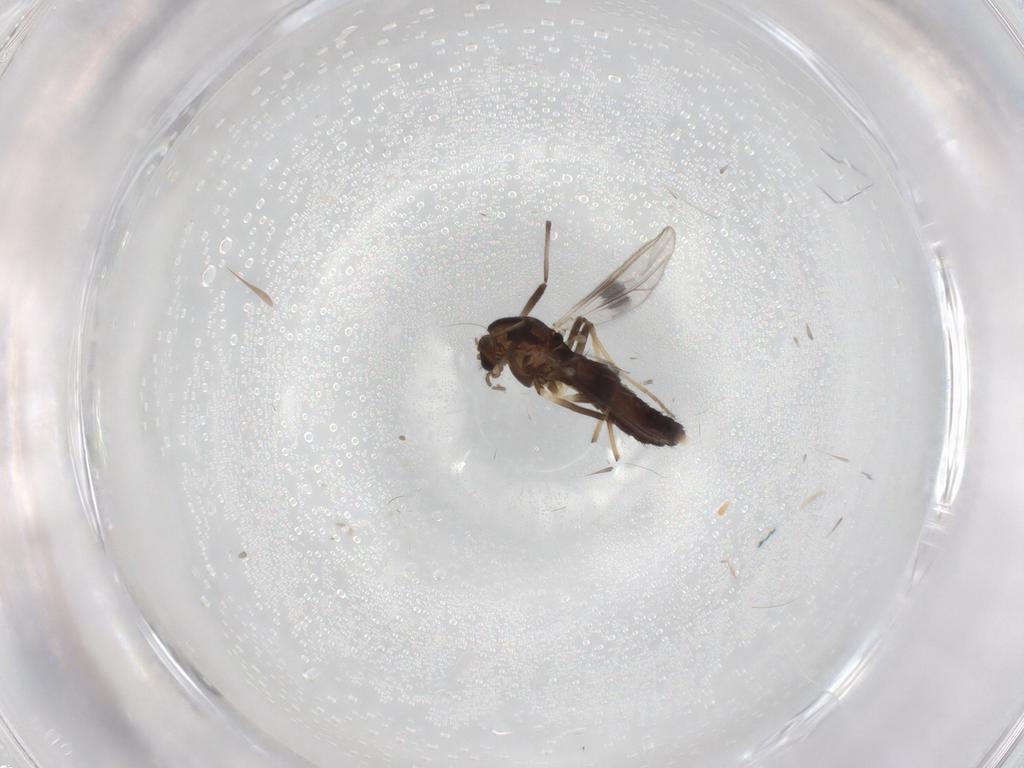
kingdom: Animalia
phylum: Arthropoda
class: Insecta
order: Diptera
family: Chironomidae
